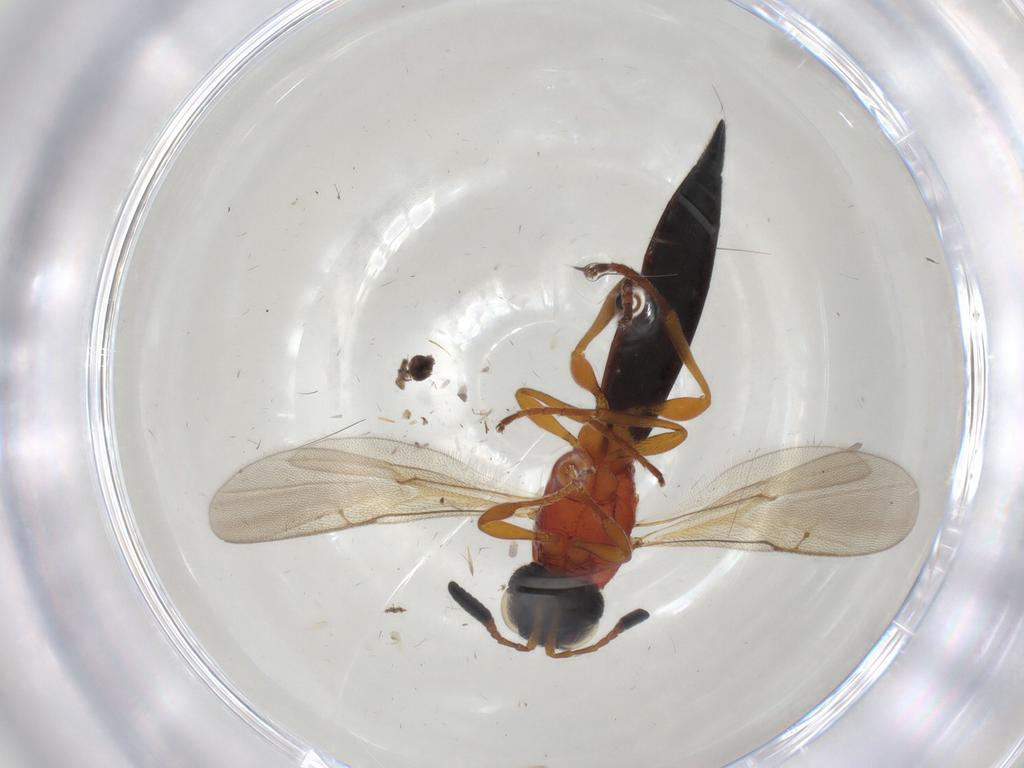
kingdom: Animalia
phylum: Arthropoda
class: Insecta
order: Hymenoptera
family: Scelionidae
